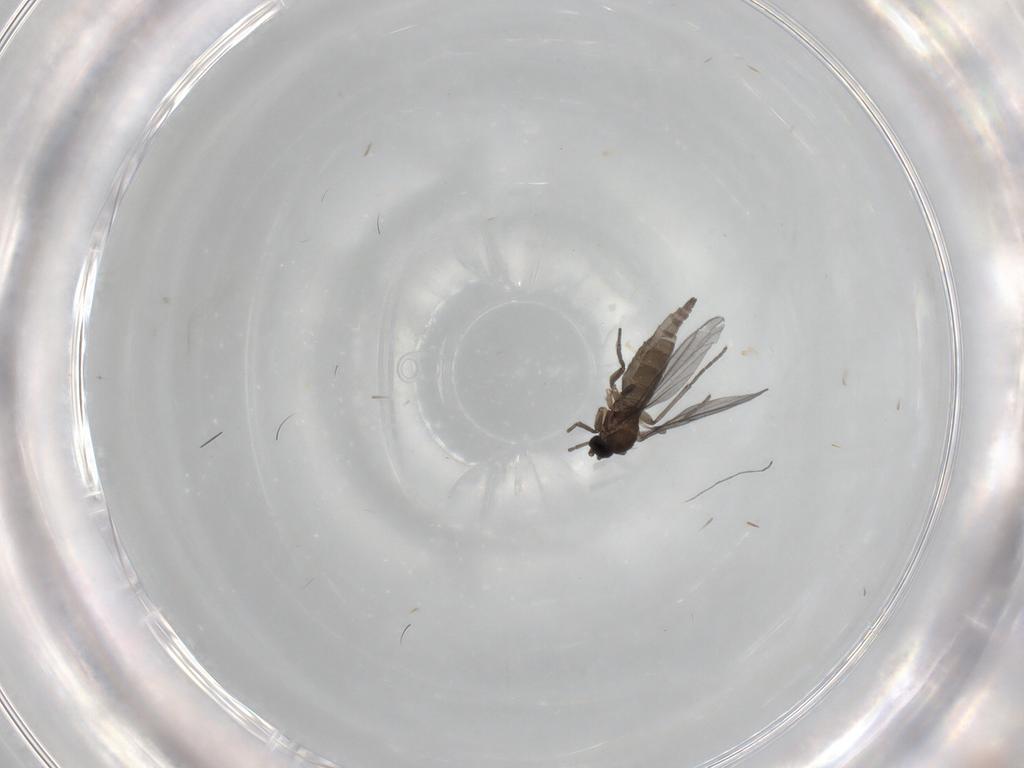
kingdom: Animalia
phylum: Arthropoda
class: Insecta
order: Diptera
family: Sciaridae
